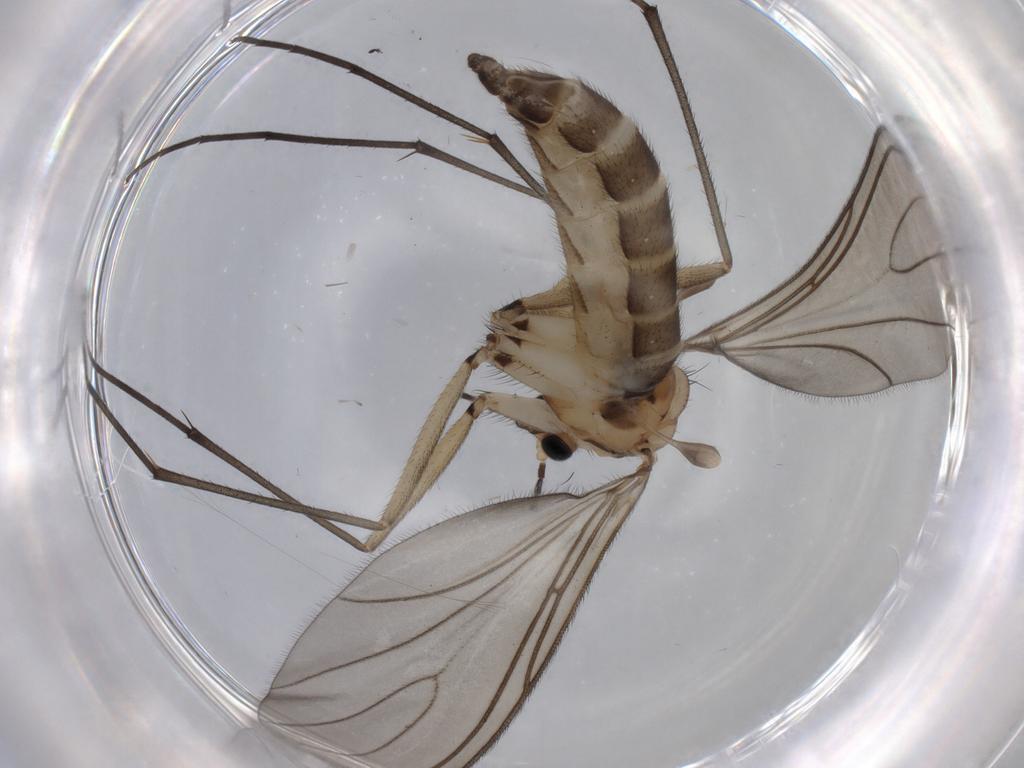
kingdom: Animalia
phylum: Arthropoda
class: Insecta
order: Diptera
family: Sciaridae
